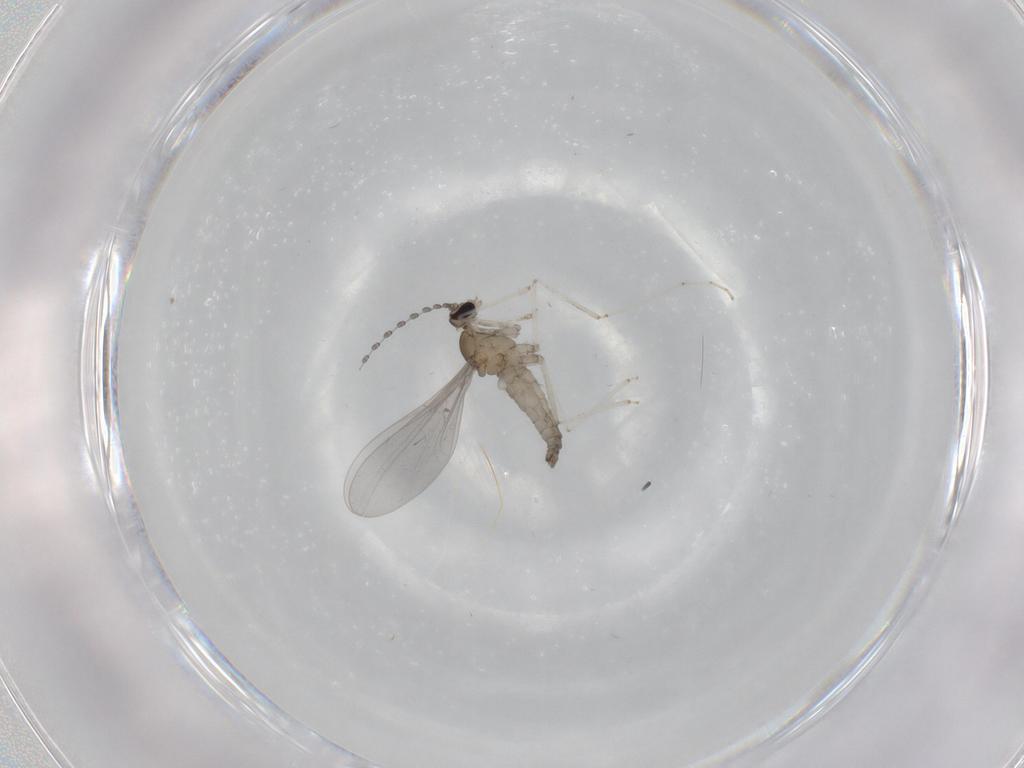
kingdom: Animalia
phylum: Arthropoda
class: Insecta
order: Diptera
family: Cecidomyiidae
